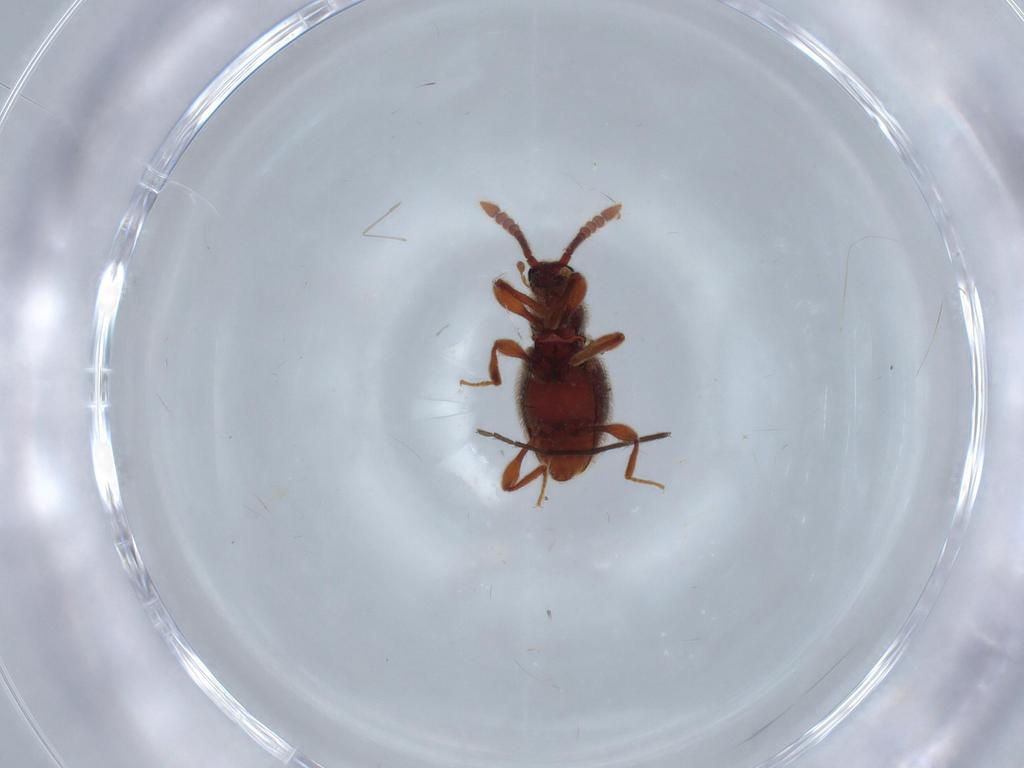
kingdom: Animalia
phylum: Arthropoda
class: Insecta
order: Coleoptera
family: Staphylinidae
